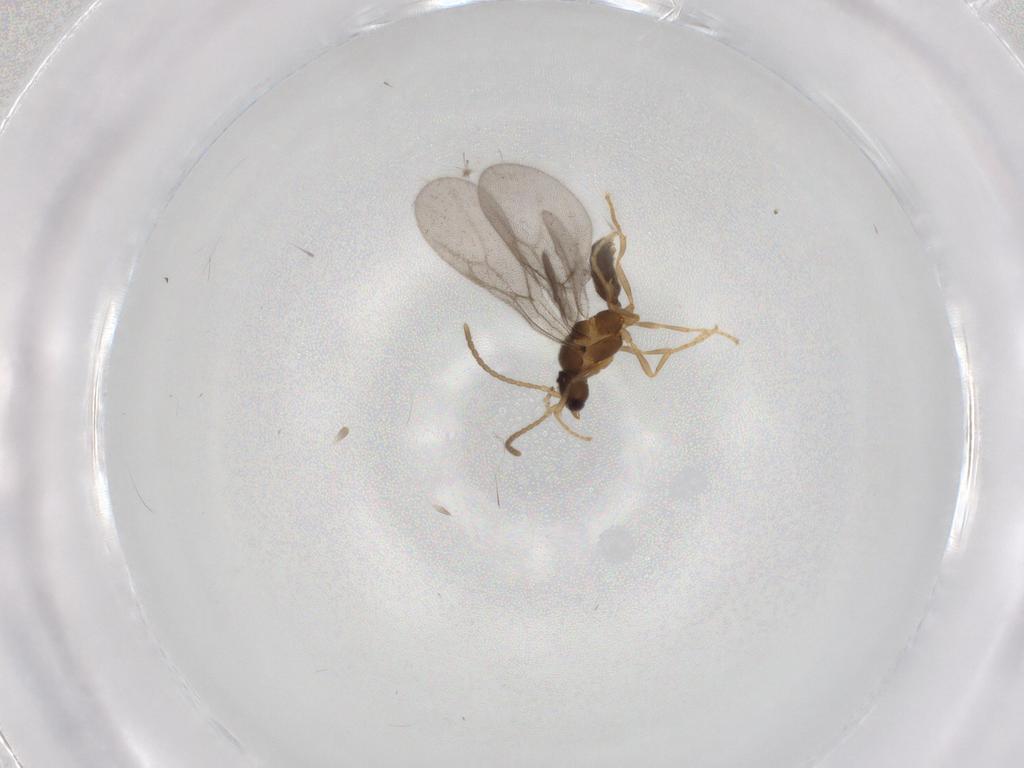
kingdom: Animalia
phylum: Arthropoda
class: Insecta
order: Hymenoptera
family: Formicidae
